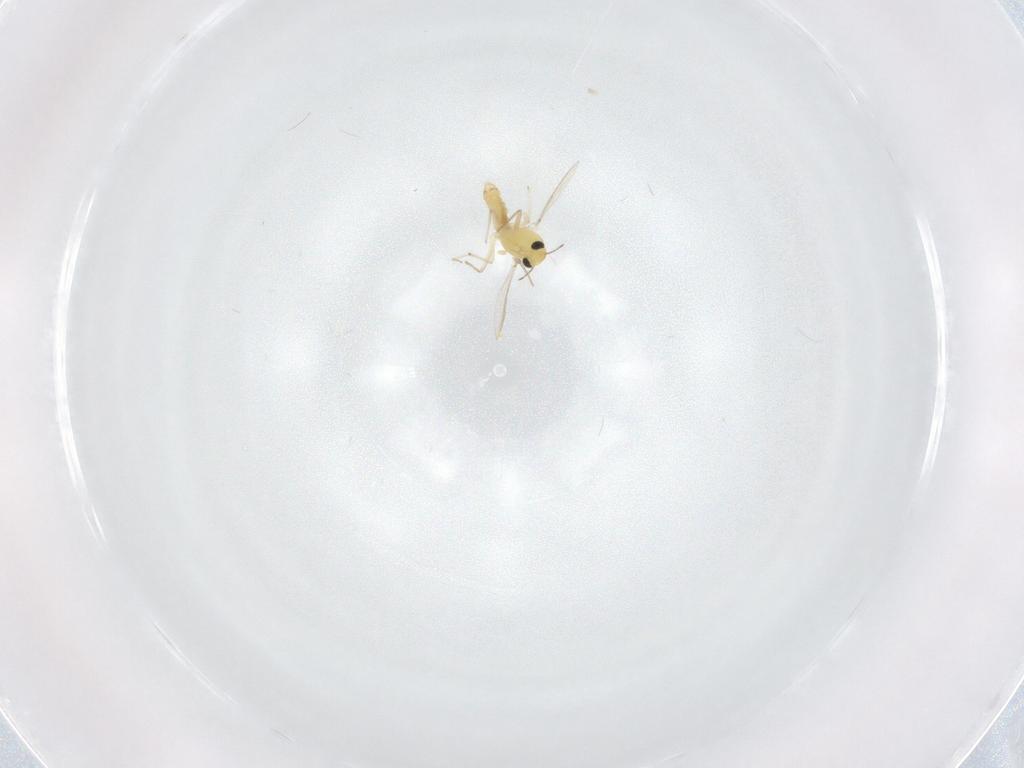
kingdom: Animalia
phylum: Arthropoda
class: Insecta
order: Diptera
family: Chironomidae
